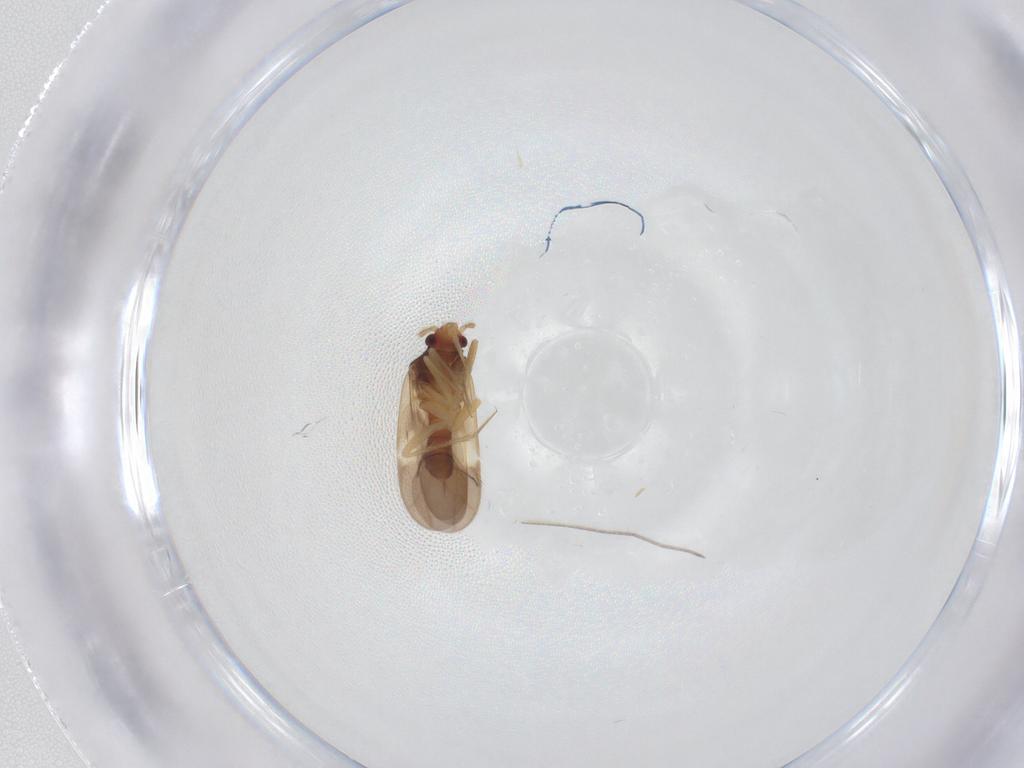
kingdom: Animalia
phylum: Arthropoda
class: Insecta
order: Hemiptera
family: Ceratocombidae
